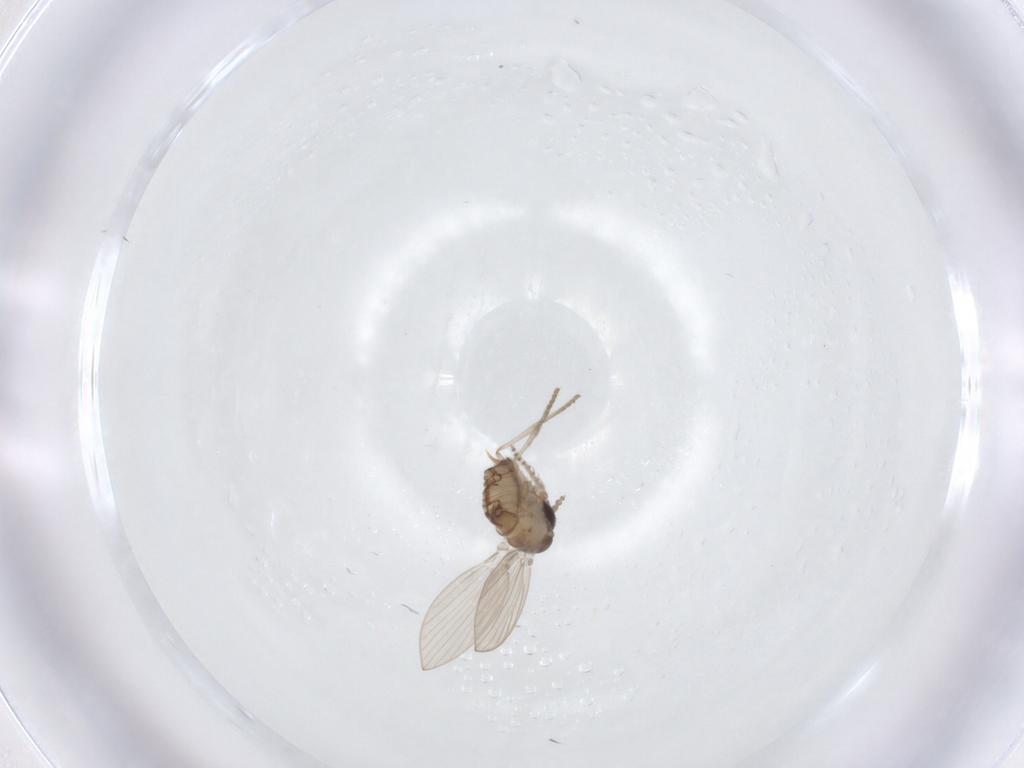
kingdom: Animalia
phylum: Arthropoda
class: Insecta
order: Diptera
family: Psychodidae
